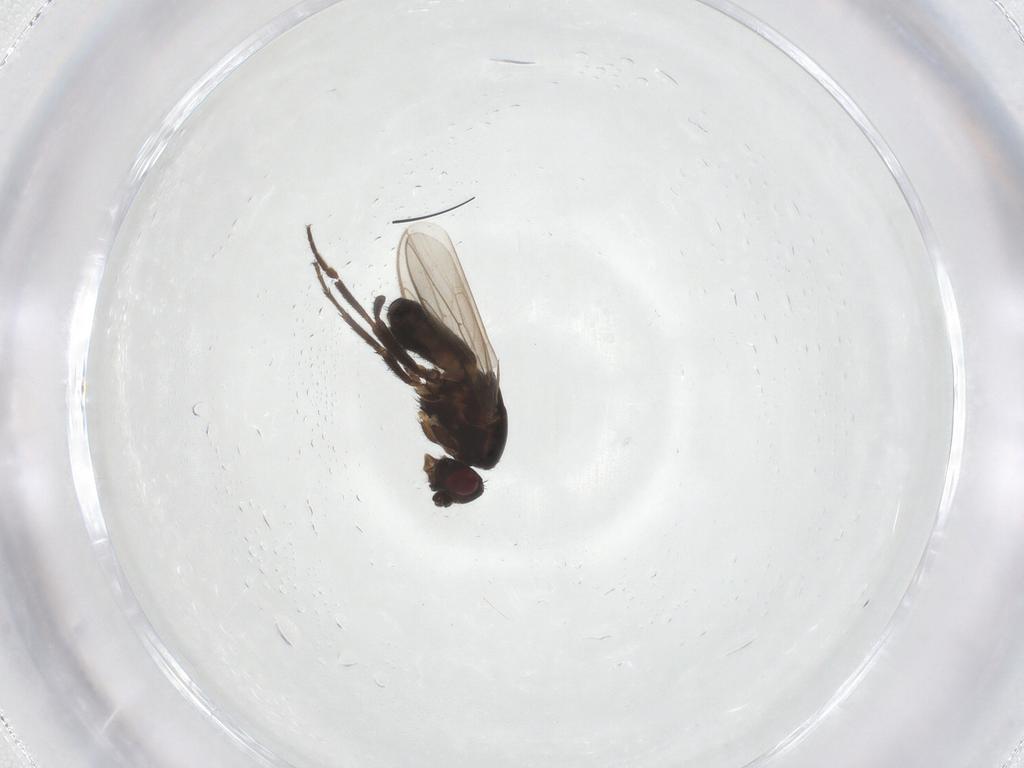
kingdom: Animalia
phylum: Arthropoda
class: Insecta
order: Diptera
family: Sphaeroceridae
